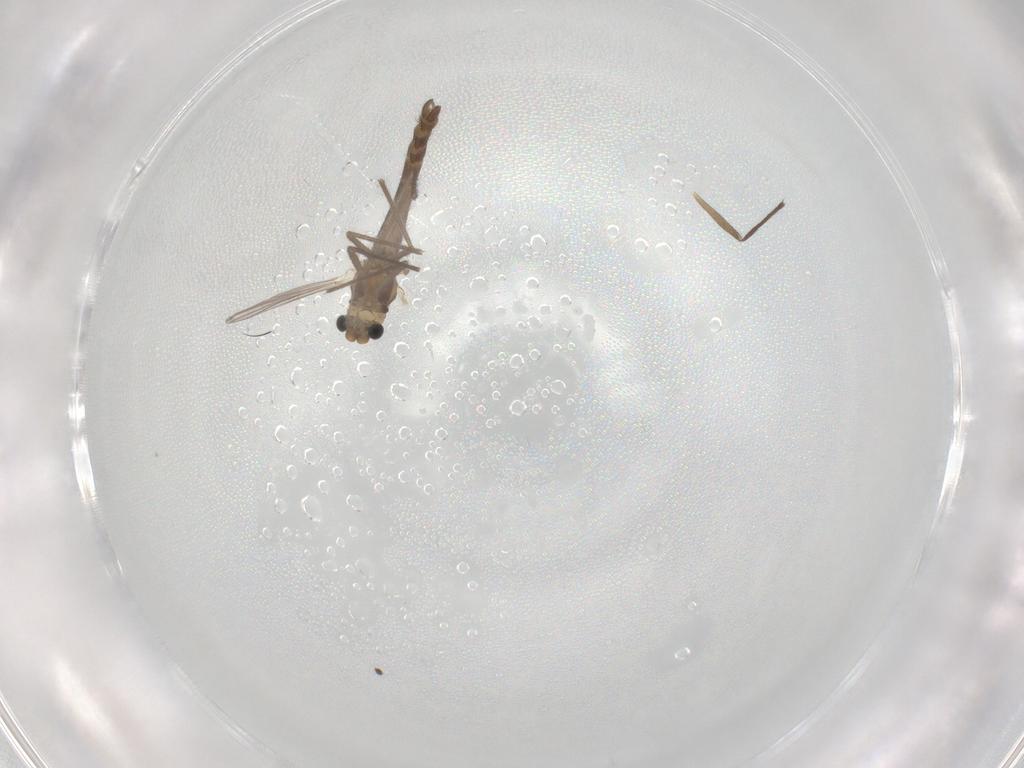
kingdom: Animalia
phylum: Arthropoda
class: Insecta
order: Diptera
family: Chironomidae
